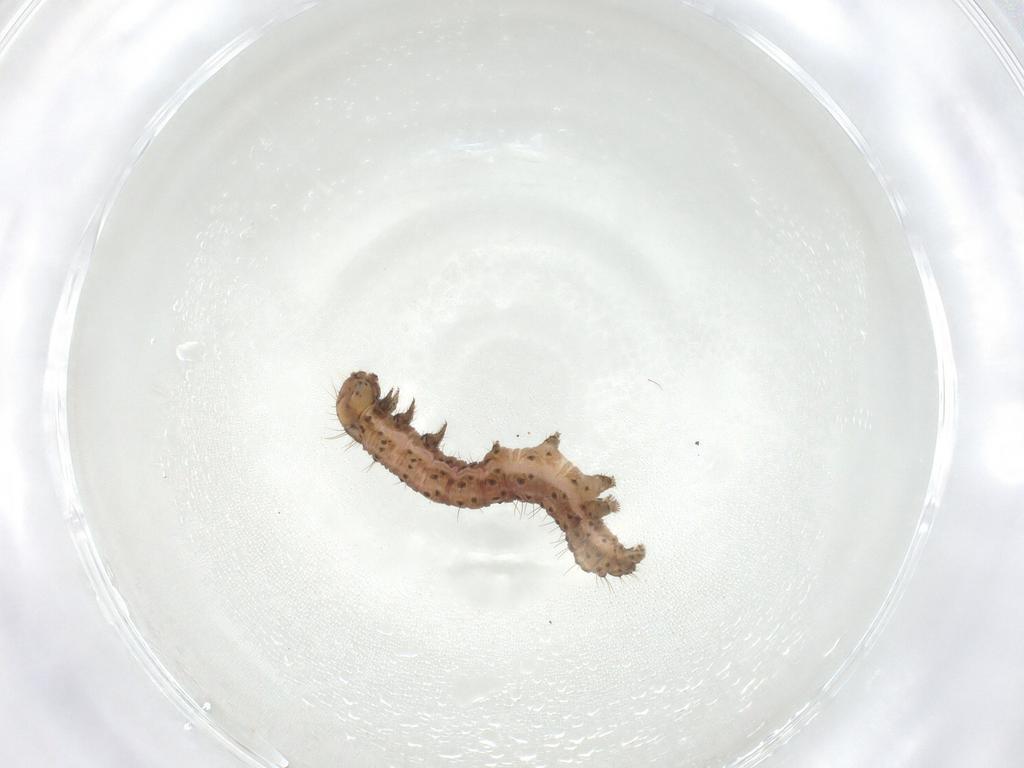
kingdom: Animalia
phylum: Arthropoda
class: Insecta
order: Lepidoptera
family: Noctuidae
